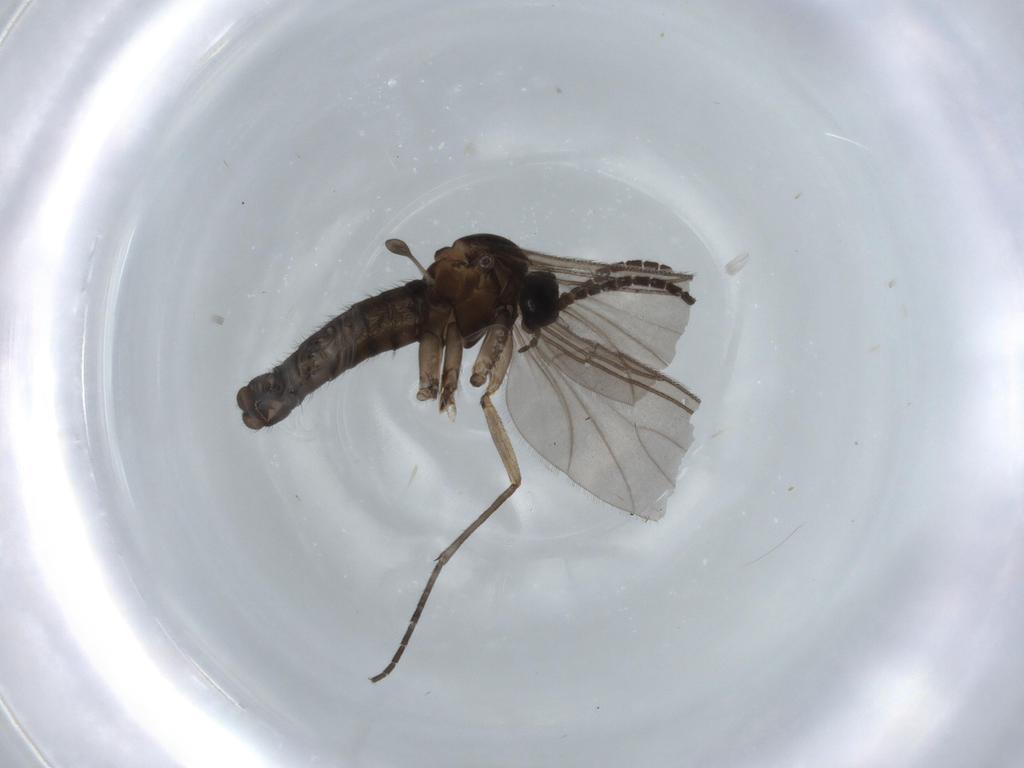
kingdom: Animalia
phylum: Arthropoda
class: Insecta
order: Diptera
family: Sciaridae
